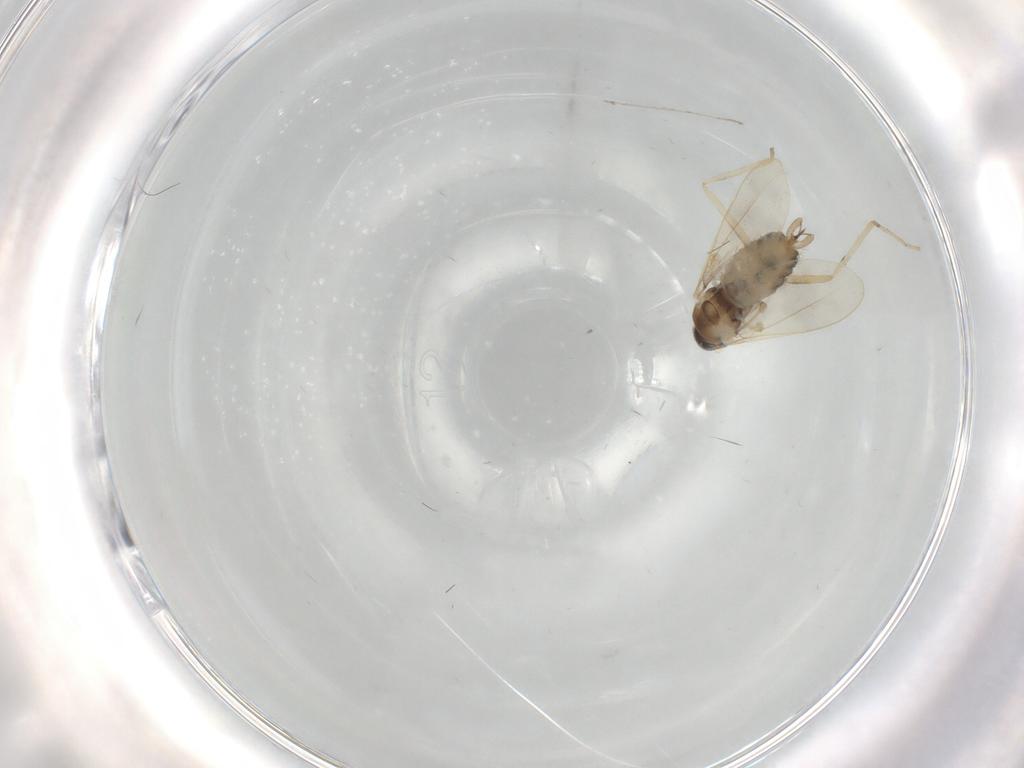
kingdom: Animalia
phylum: Arthropoda
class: Insecta
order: Diptera
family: Cecidomyiidae
